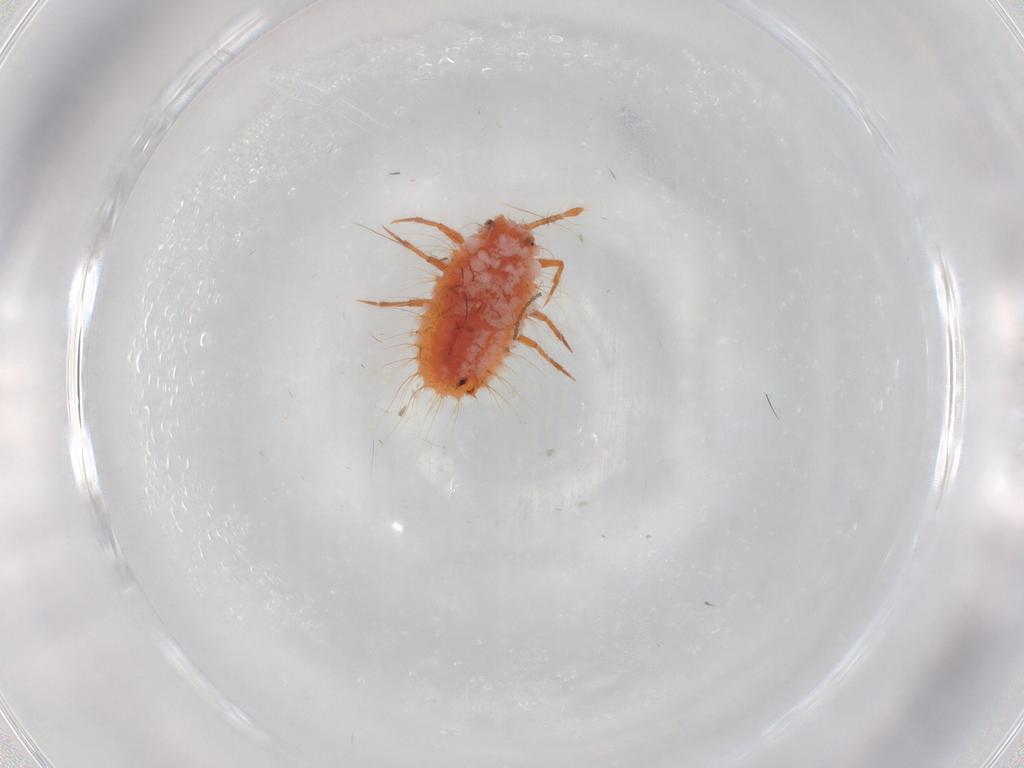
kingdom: Animalia
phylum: Arthropoda
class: Insecta
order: Hemiptera
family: Coccoidea_incertae_sedis
